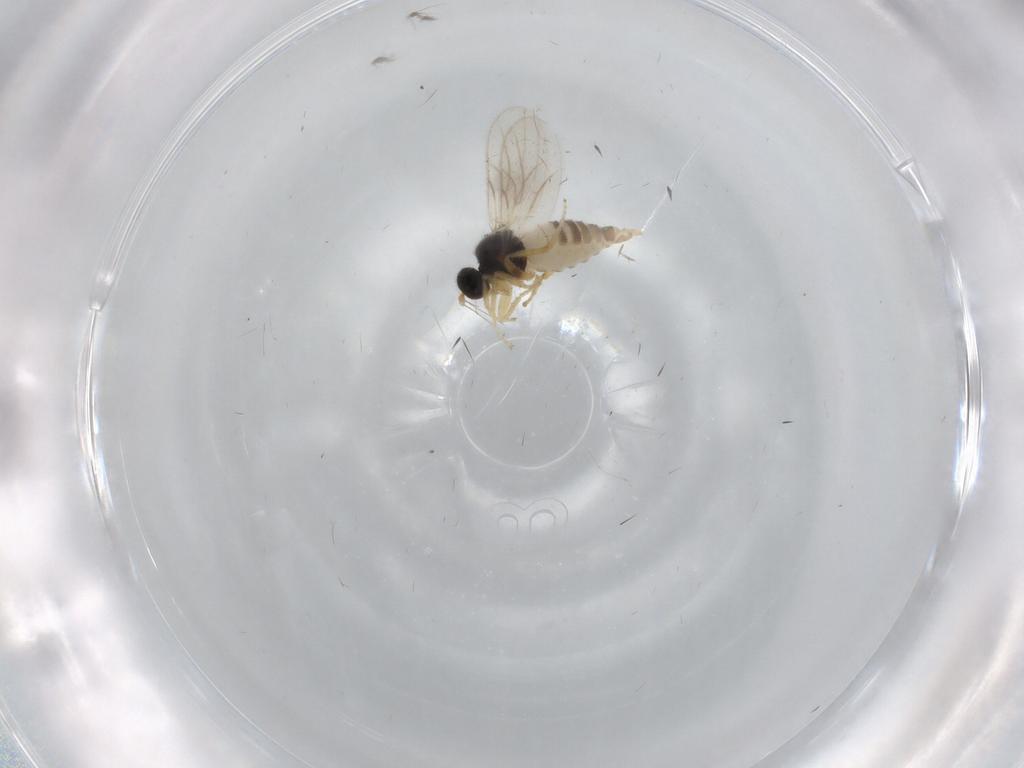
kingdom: Animalia
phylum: Arthropoda
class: Insecta
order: Diptera
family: Hybotidae
